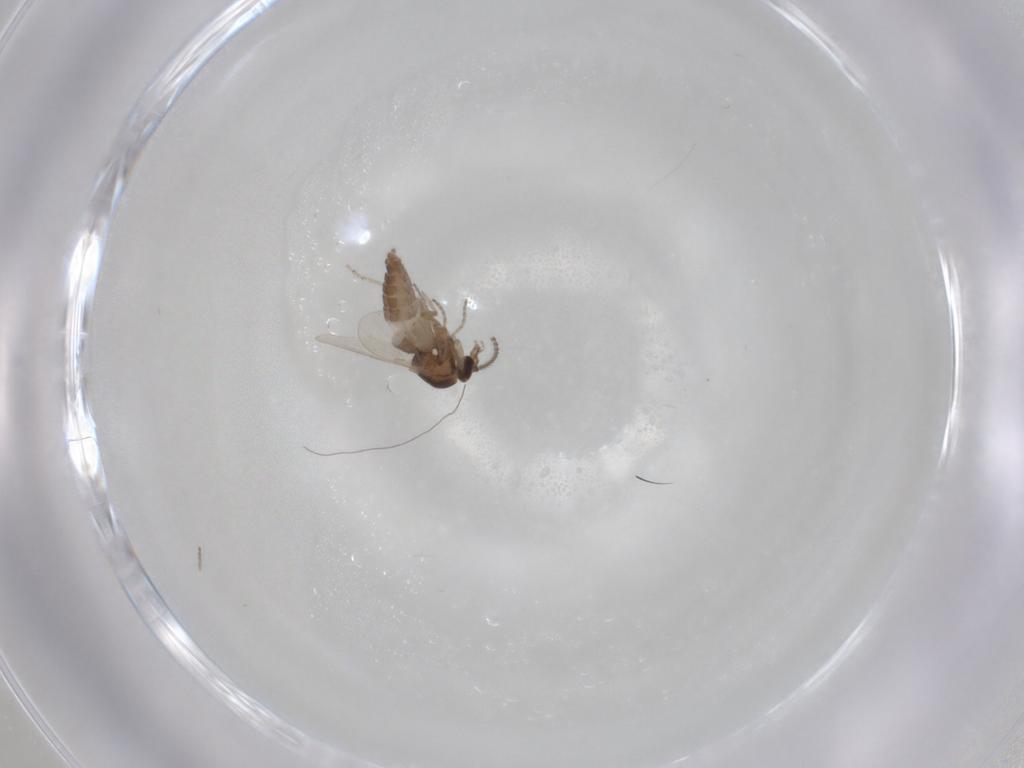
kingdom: Animalia
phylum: Arthropoda
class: Insecta
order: Diptera
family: Ceratopogonidae
